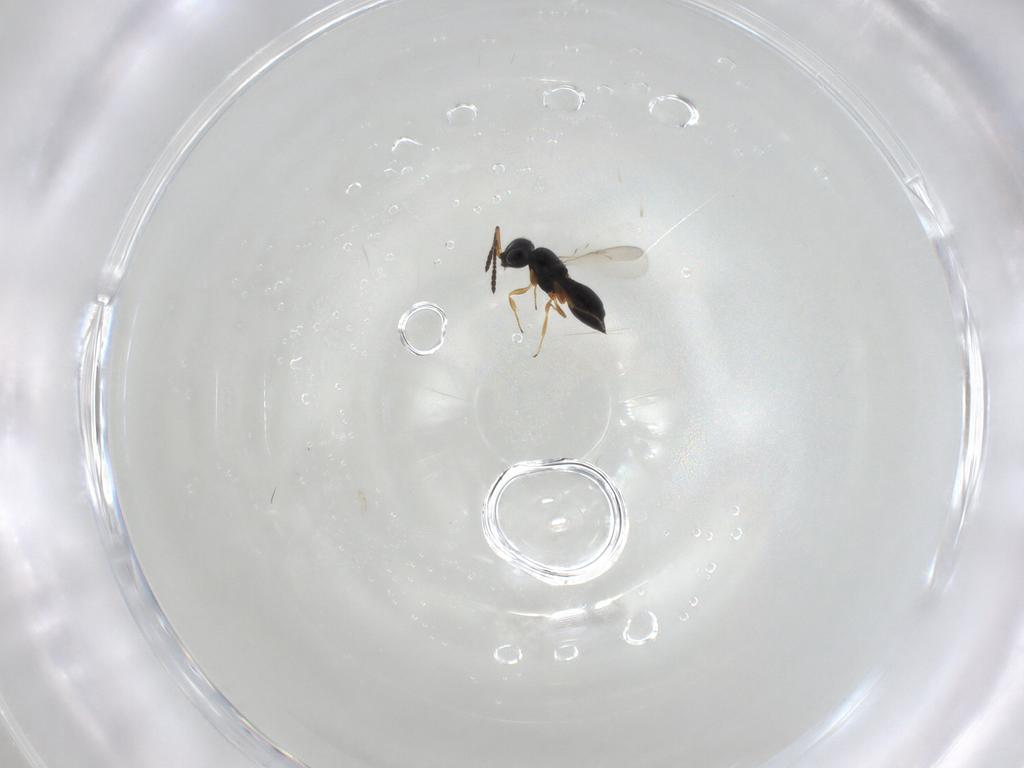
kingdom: Animalia
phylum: Arthropoda
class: Insecta
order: Hymenoptera
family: Scelionidae
